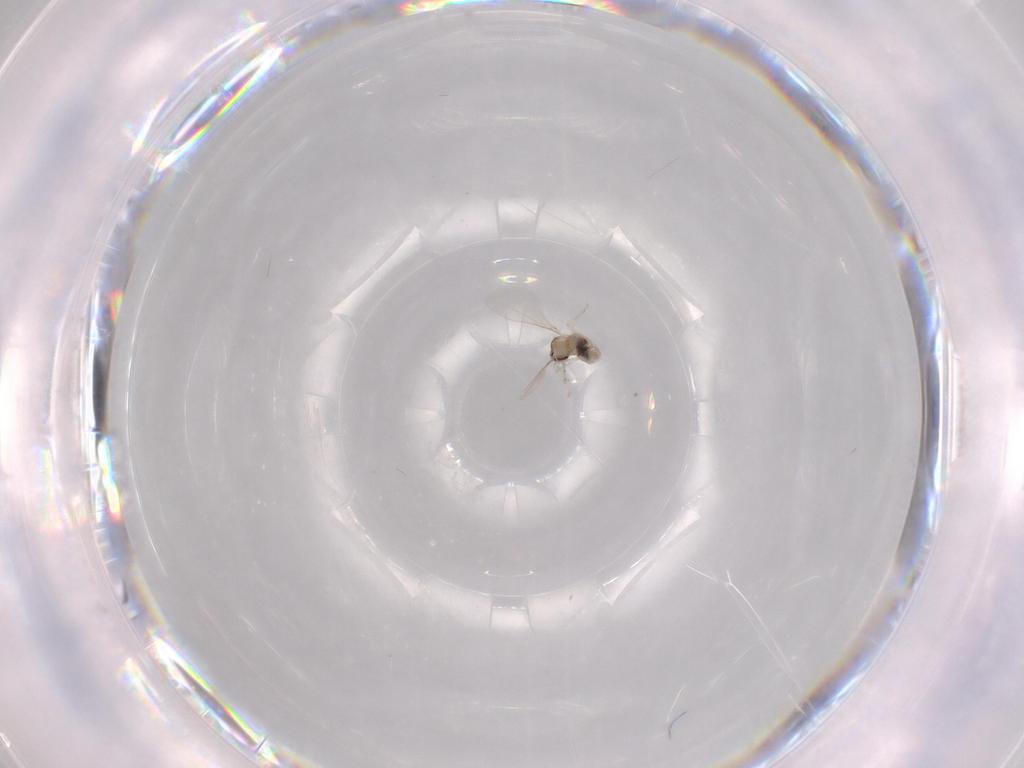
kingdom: Animalia
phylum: Arthropoda
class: Insecta
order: Diptera
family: Cecidomyiidae
